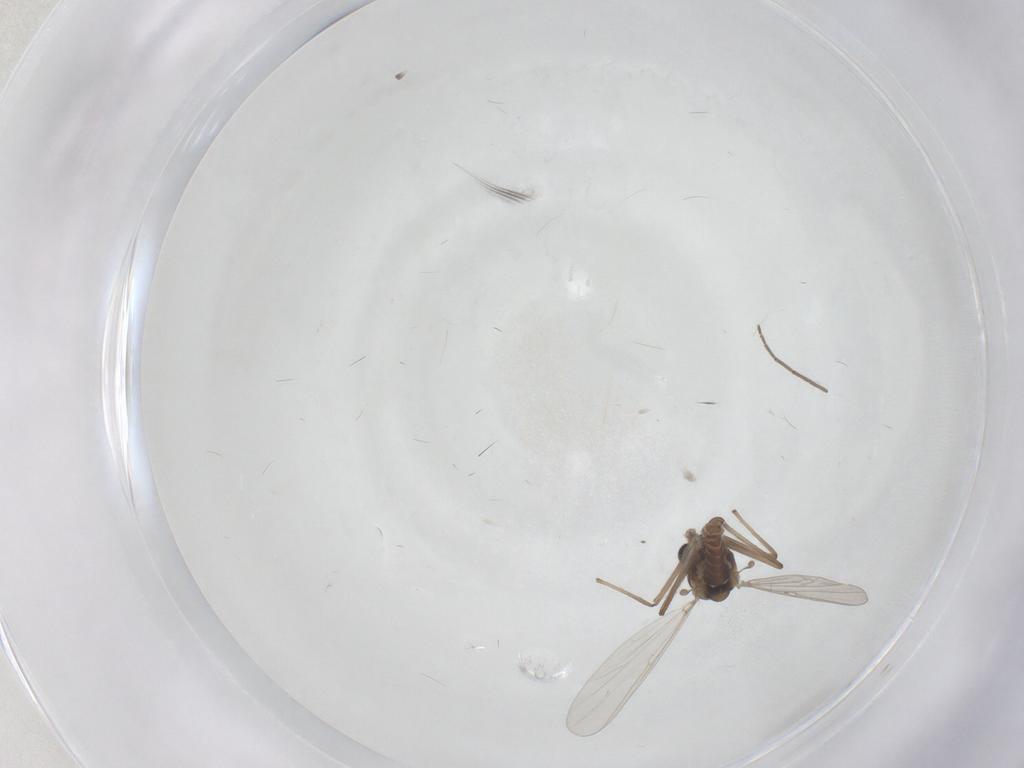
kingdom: Animalia
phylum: Arthropoda
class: Insecta
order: Diptera
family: Chironomidae
